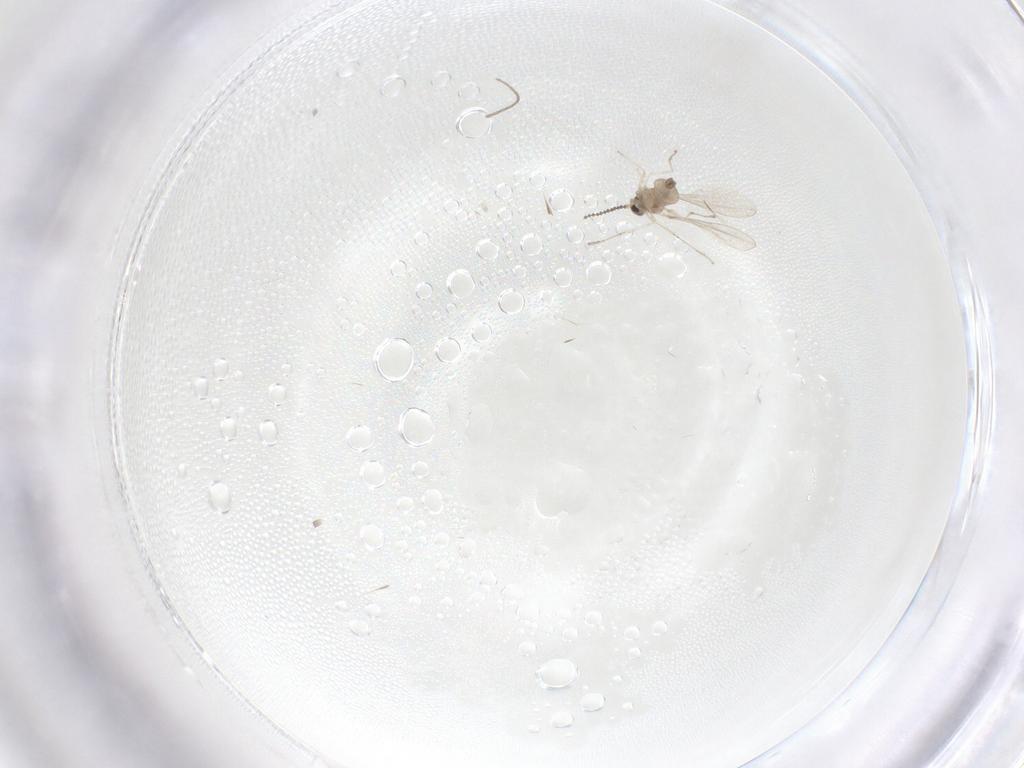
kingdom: Animalia
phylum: Arthropoda
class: Insecta
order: Diptera
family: Cecidomyiidae
